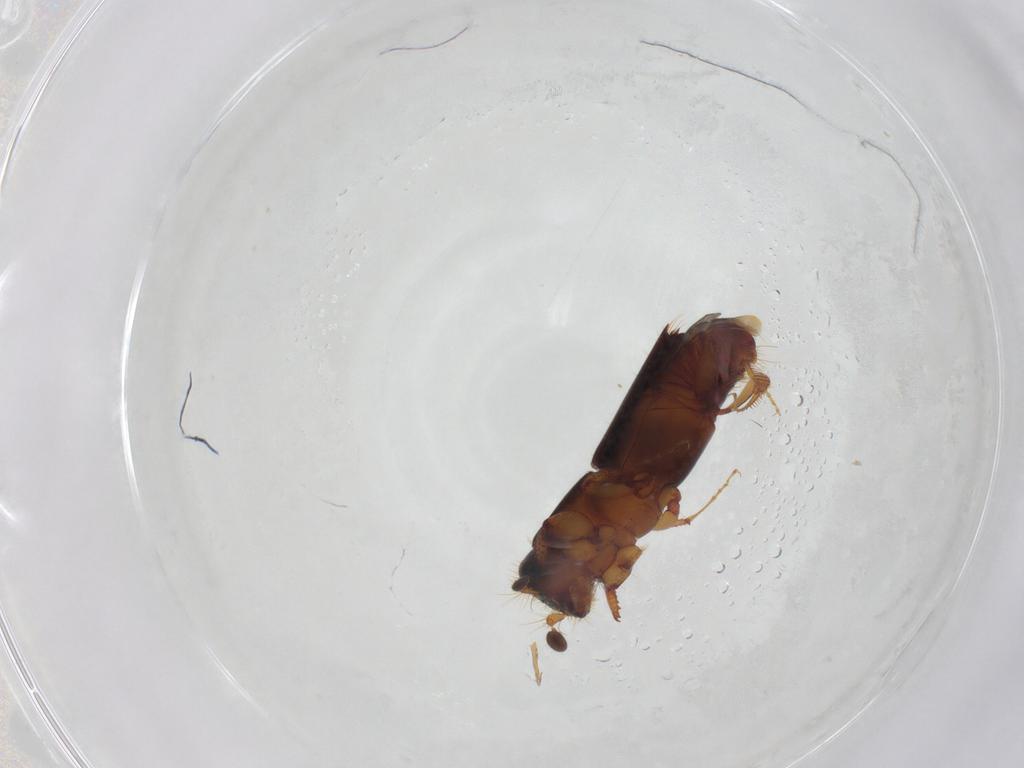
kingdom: Animalia
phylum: Arthropoda
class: Insecta
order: Coleoptera
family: Curculionidae
